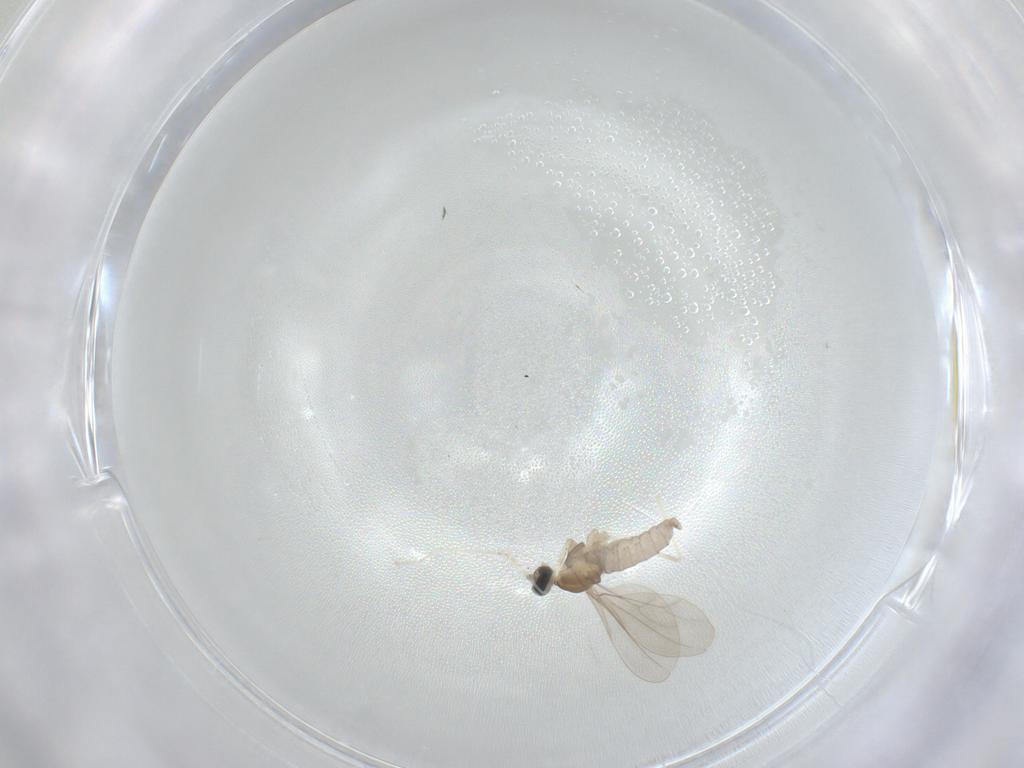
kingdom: Animalia
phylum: Arthropoda
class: Insecta
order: Diptera
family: Cecidomyiidae
